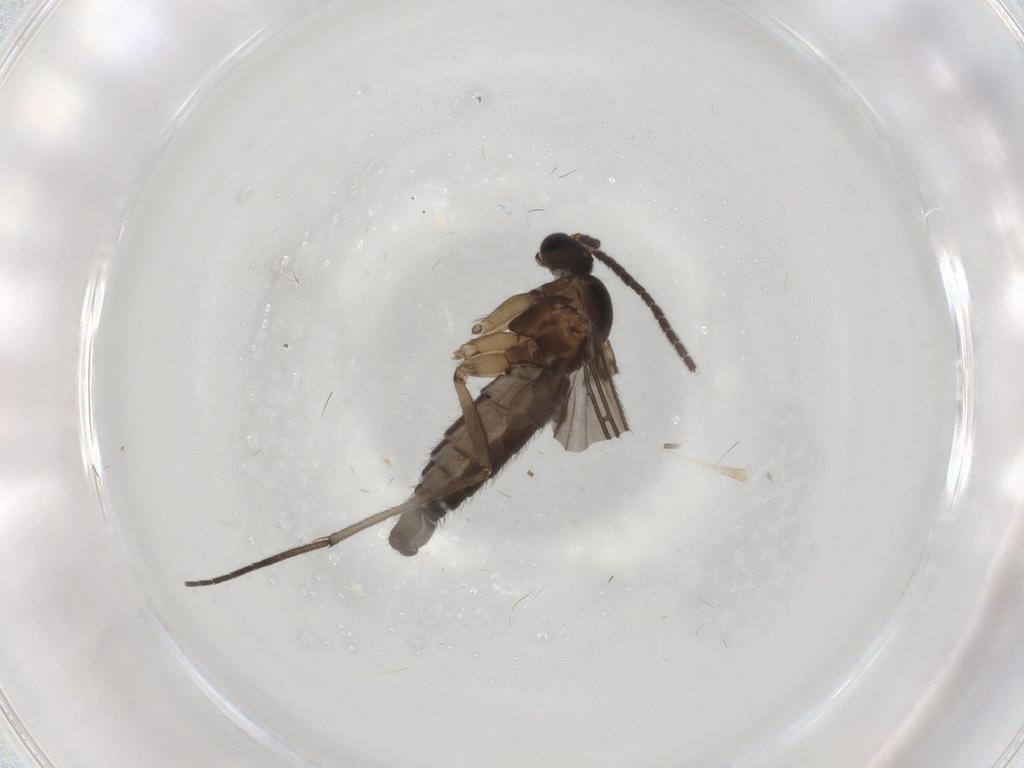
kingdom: Animalia
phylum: Arthropoda
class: Insecta
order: Diptera
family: Sciaridae
